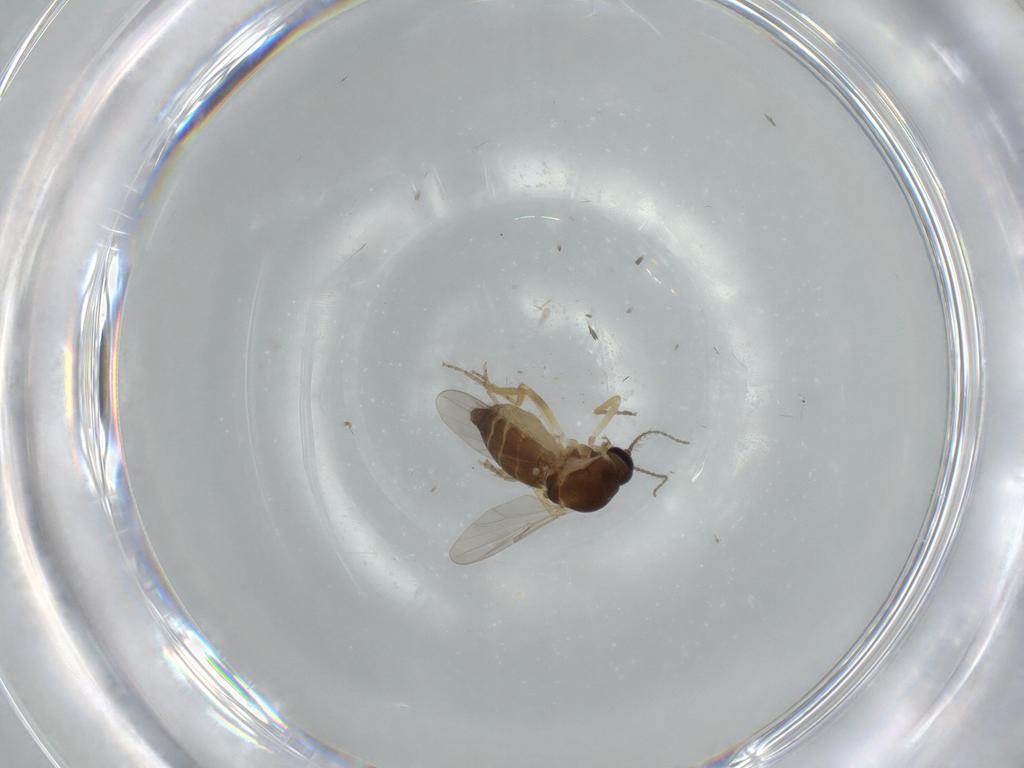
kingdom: Animalia
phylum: Arthropoda
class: Insecta
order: Diptera
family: Ceratopogonidae
